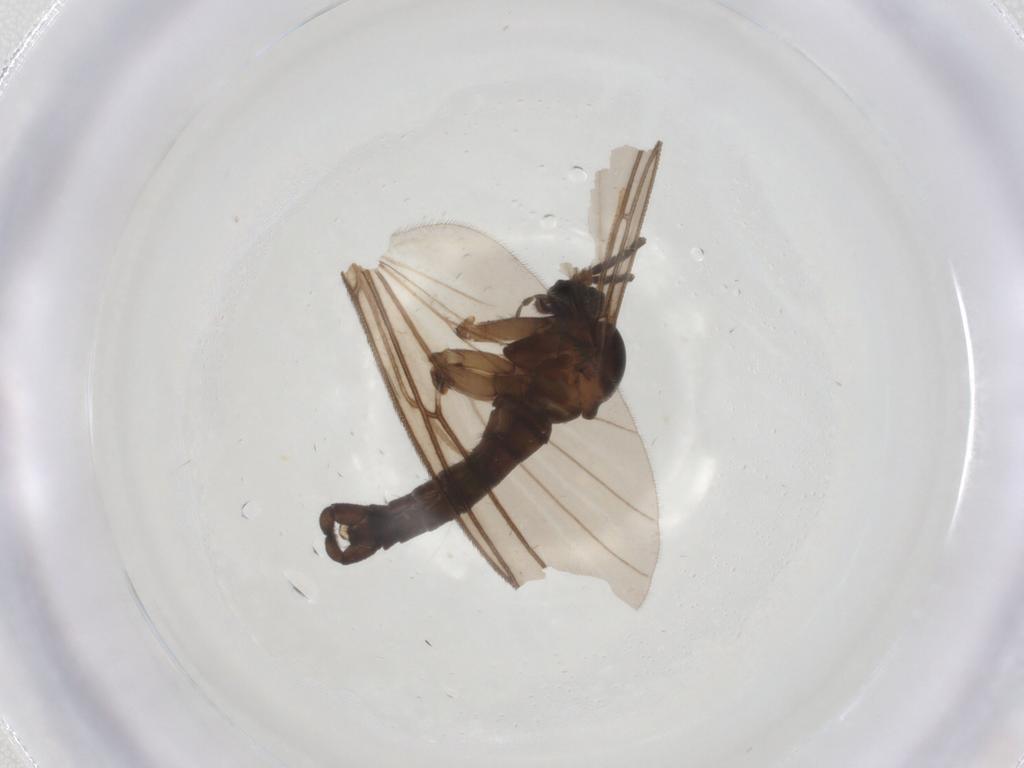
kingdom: Animalia
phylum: Arthropoda
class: Insecta
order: Diptera
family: Sciaridae
